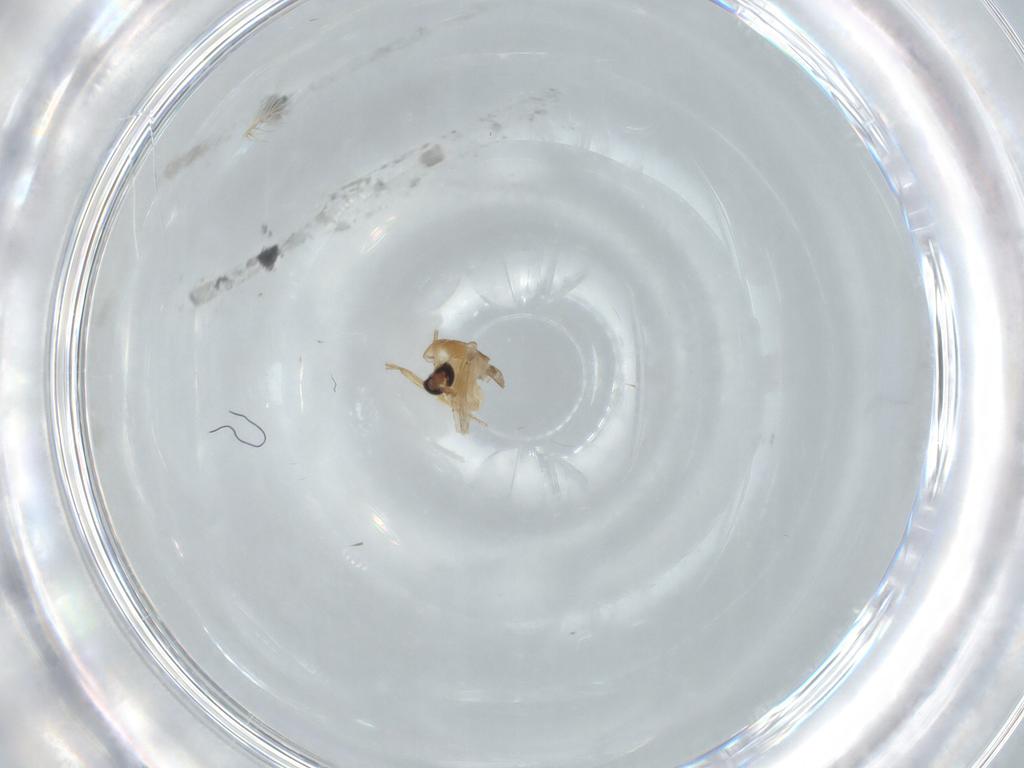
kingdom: Animalia
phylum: Arthropoda
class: Insecta
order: Diptera
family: Chironomidae
